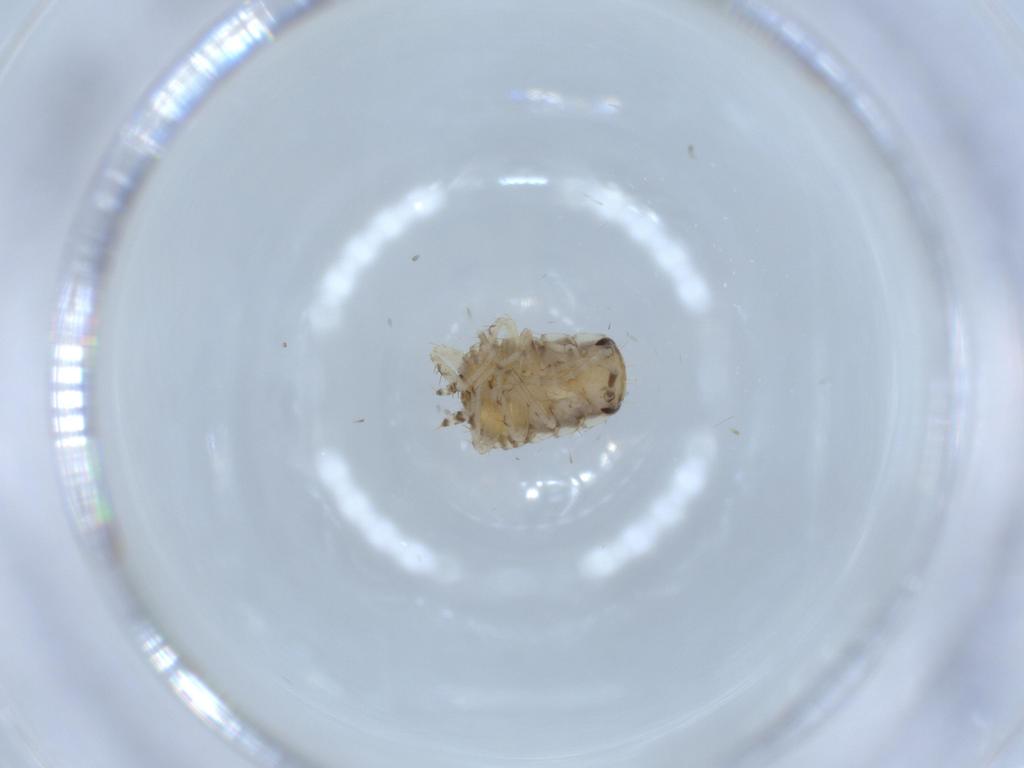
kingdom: Animalia
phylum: Arthropoda
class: Insecta
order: Blattodea
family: Ectobiidae
